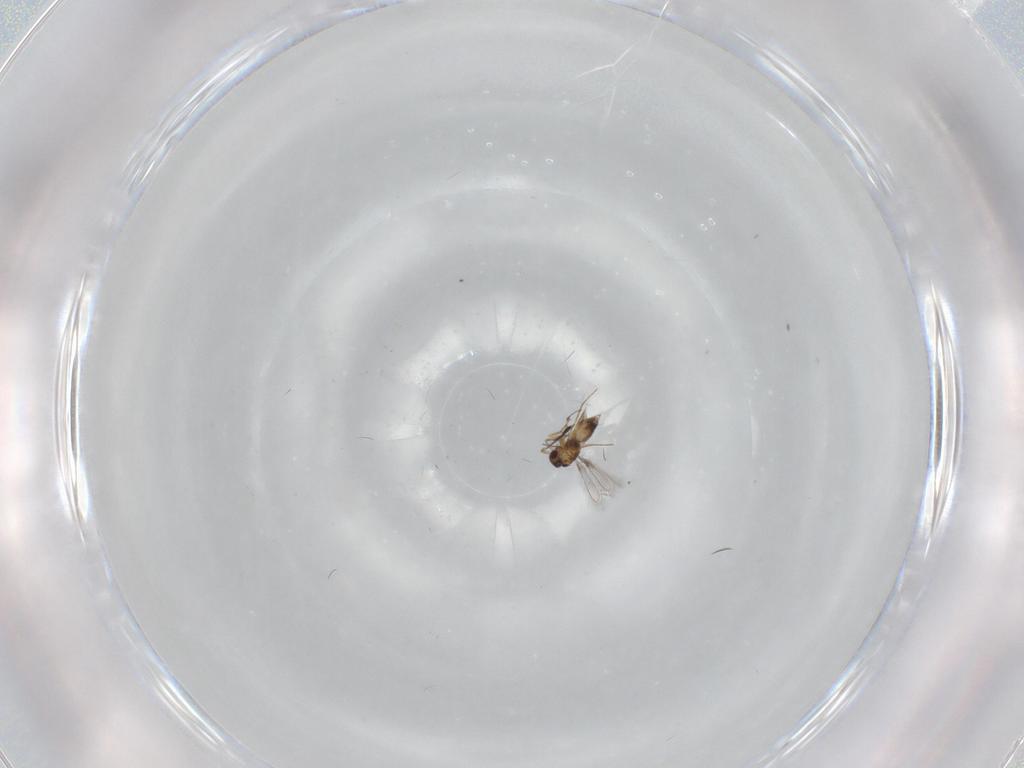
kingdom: Animalia
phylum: Arthropoda
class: Insecta
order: Hymenoptera
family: Mymaridae
